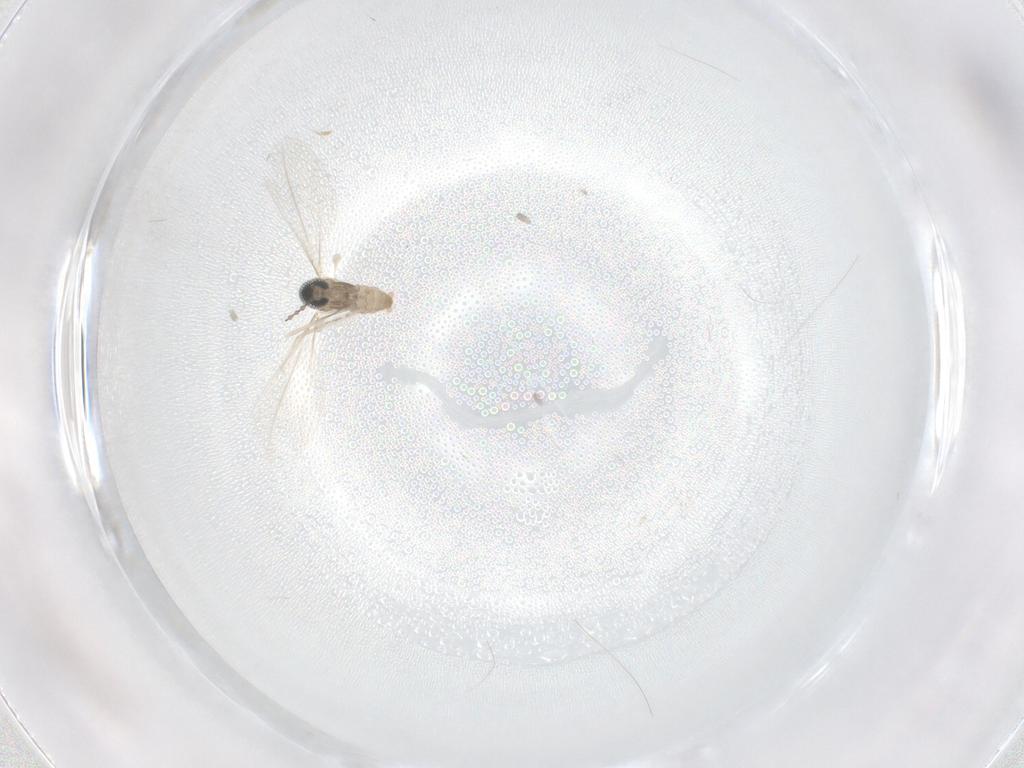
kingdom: Animalia
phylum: Arthropoda
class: Insecta
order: Diptera
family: Cecidomyiidae
